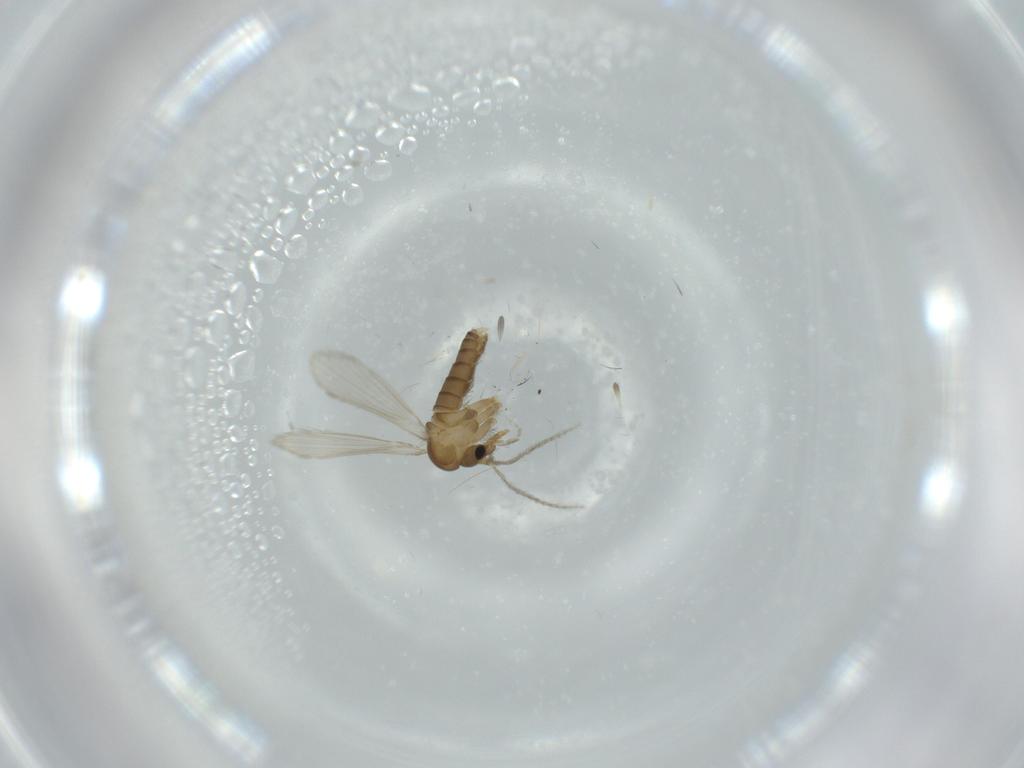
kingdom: Animalia
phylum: Arthropoda
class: Insecta
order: Diptera
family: Psychodidae
